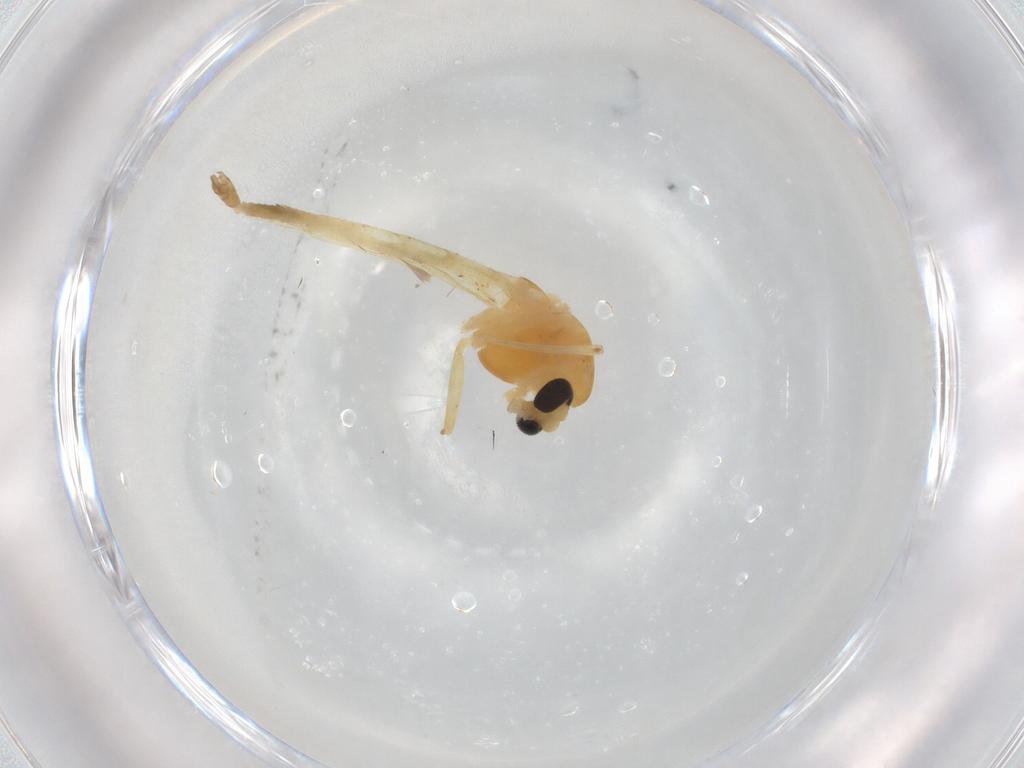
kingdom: Animalia
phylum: Arthropoda
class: Insecta
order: Diptera
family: Chironomidae
